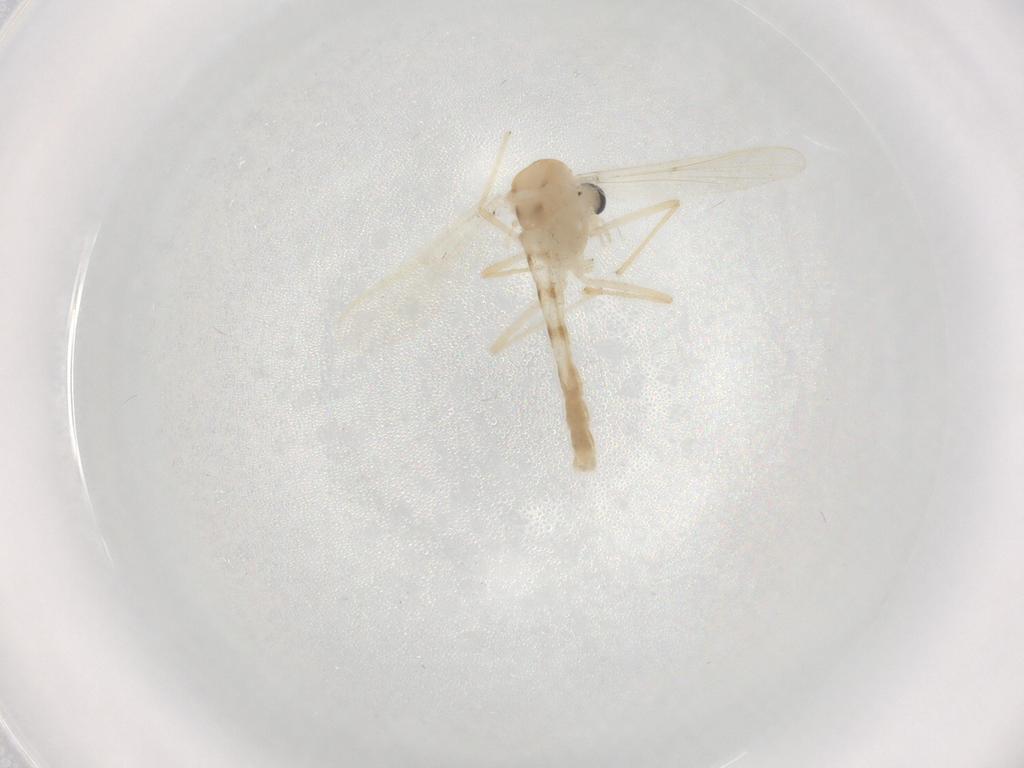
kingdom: Animalia
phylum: Arthropoda
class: Insecta
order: Diptera
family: Chironomidae
